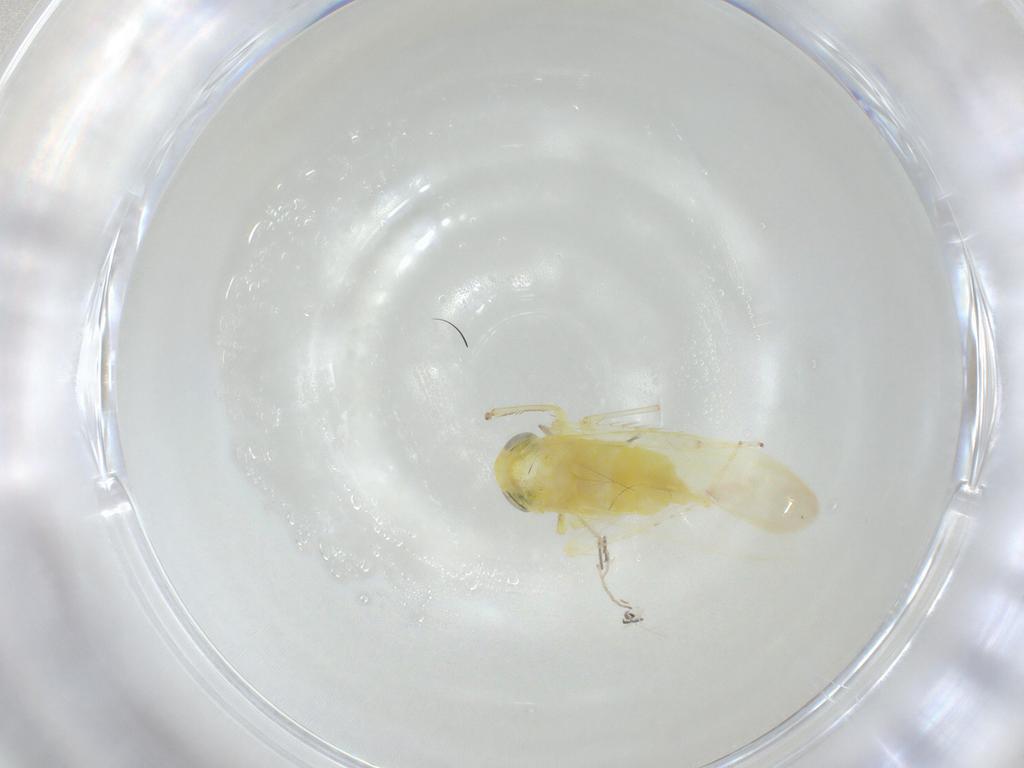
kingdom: Animalia
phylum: Arthropoda
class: Insecta
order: Hemiptera
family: Cicadellidae
